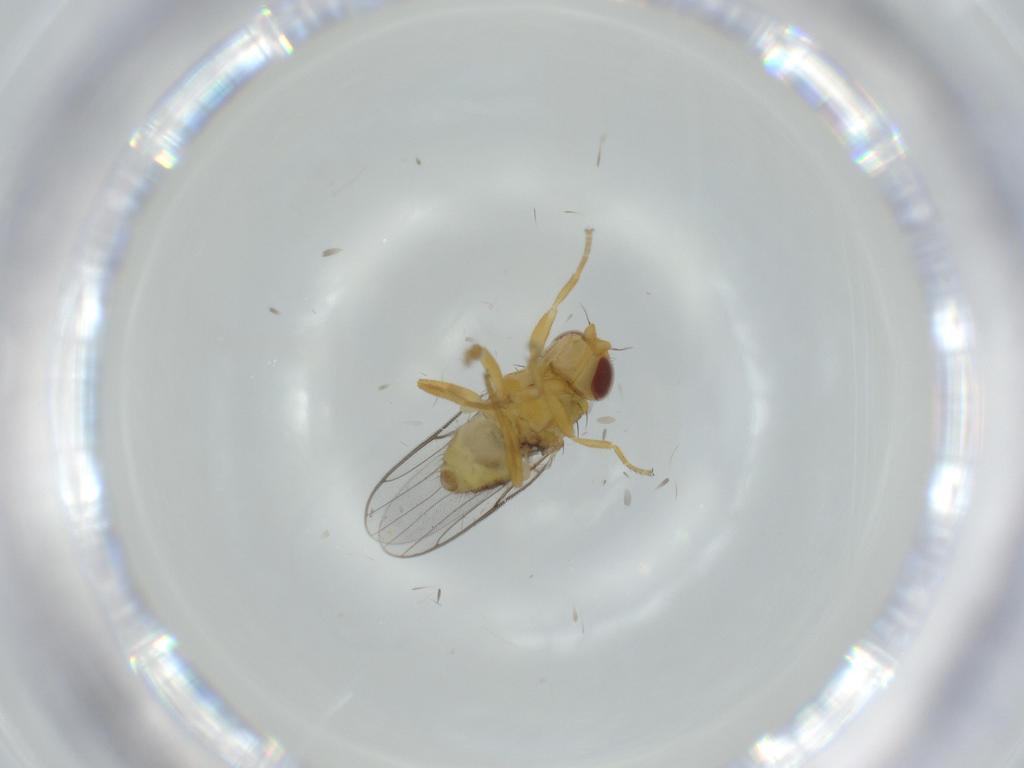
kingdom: Animalia
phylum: Arthropoda
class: Insecta
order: Diptera
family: Chloropidae
